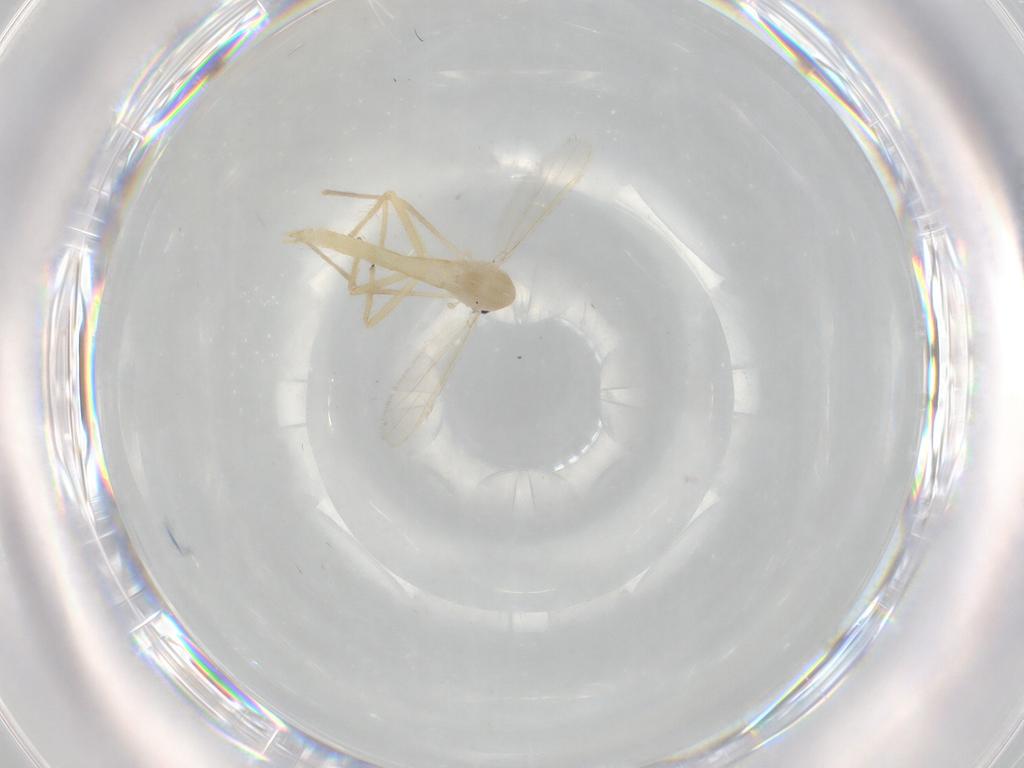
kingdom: Animalia
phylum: Arthropoda
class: Insecta
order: Diptera
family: Chironomidae
